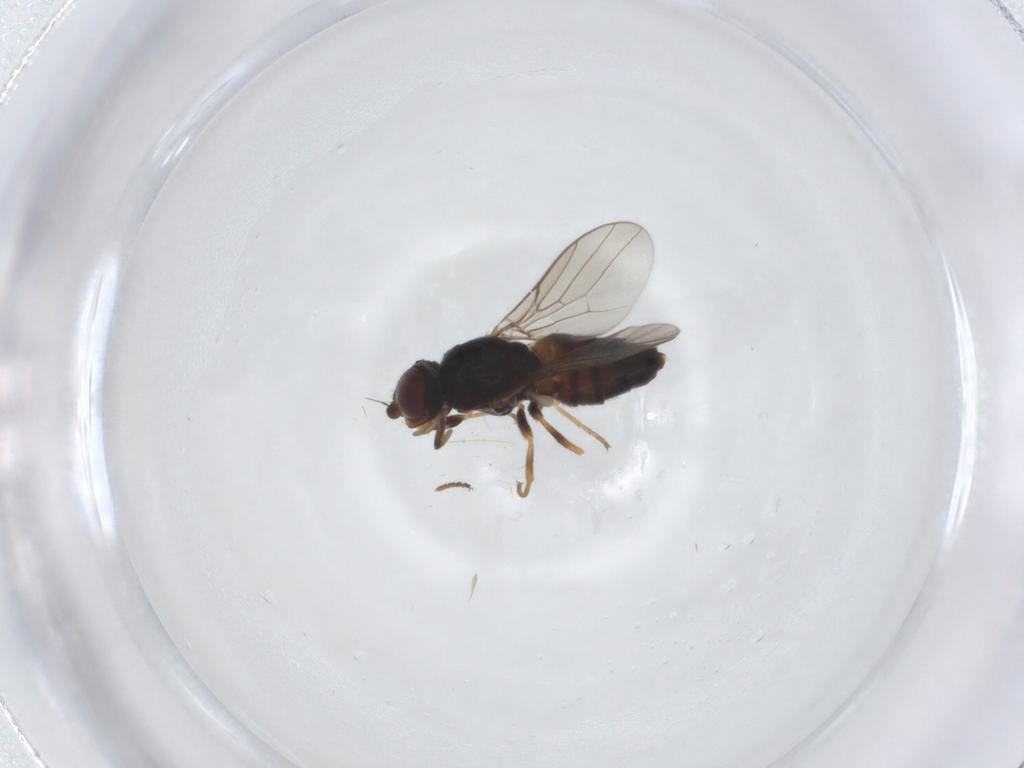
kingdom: Animalia
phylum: Arthropoda
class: Insecta
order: Diptera
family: Chloropidae
